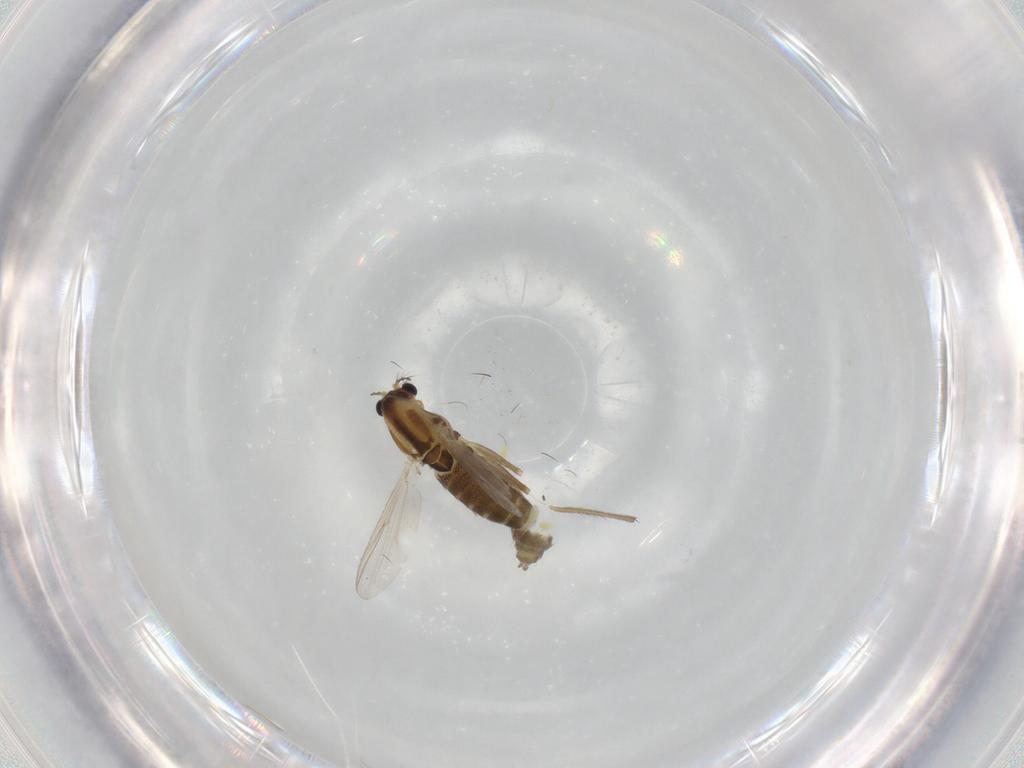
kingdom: Animalia
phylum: Arthropoda
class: Insecta
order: Diptera
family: Chironomidae
